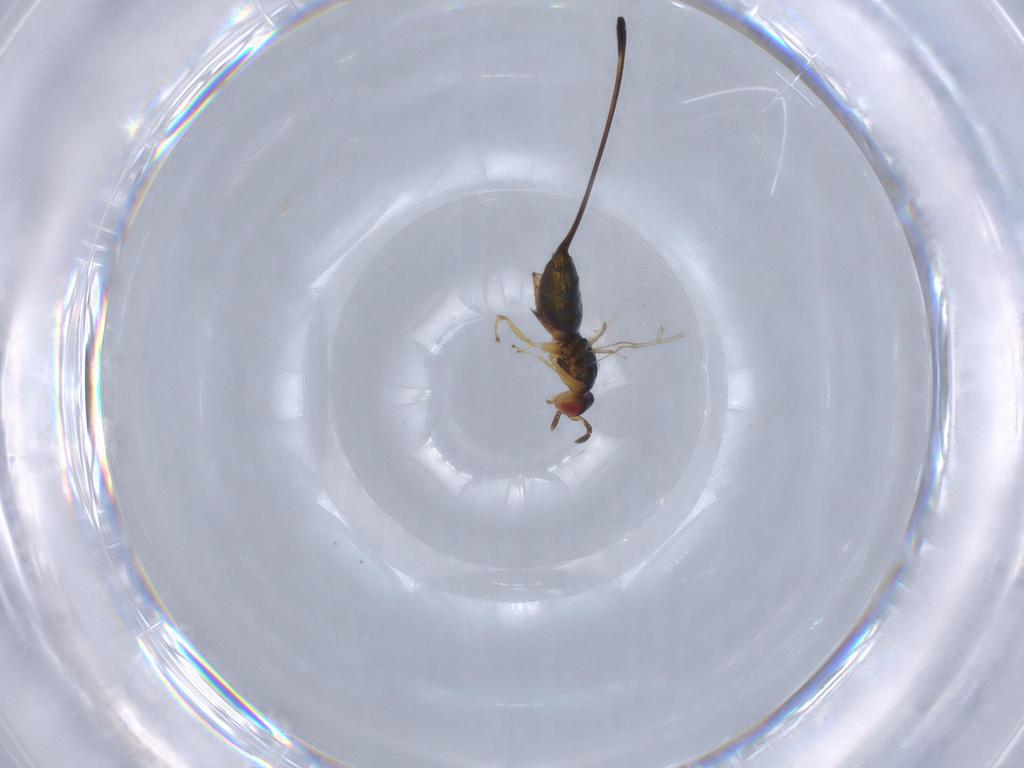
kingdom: Animalia
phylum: Arthropoda
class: Insecta
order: Hymenoptera
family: Pteromalidae
